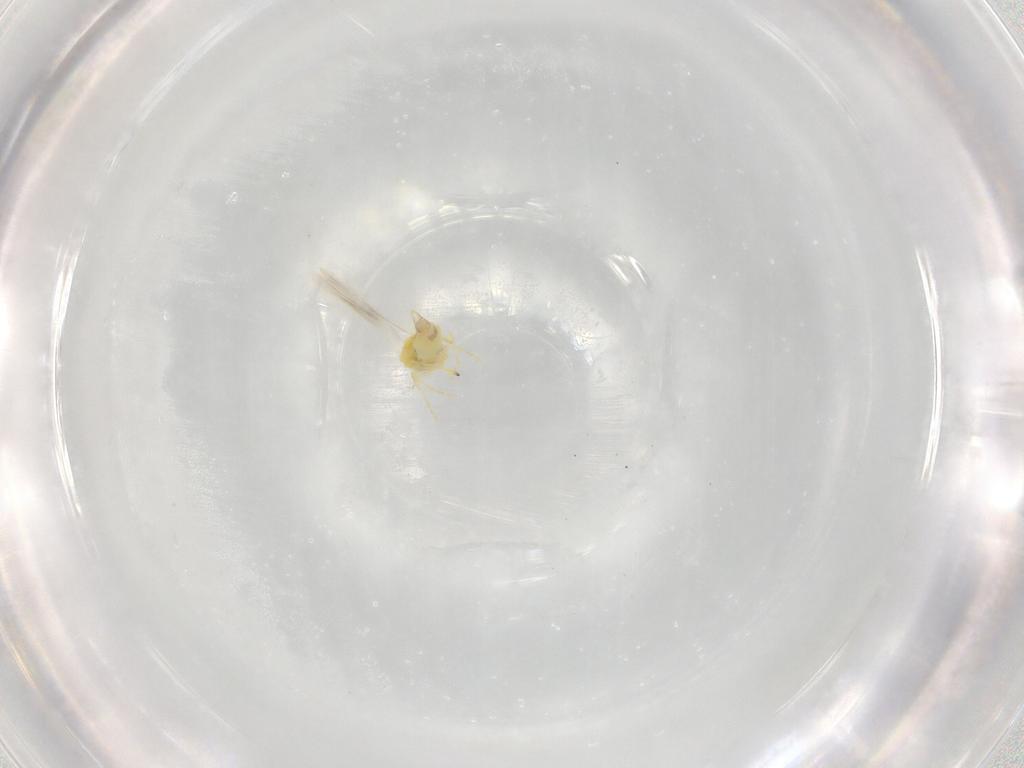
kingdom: Animalia
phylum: Arthropoda
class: Insecta
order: Hemiptera
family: Aleyrodidae
